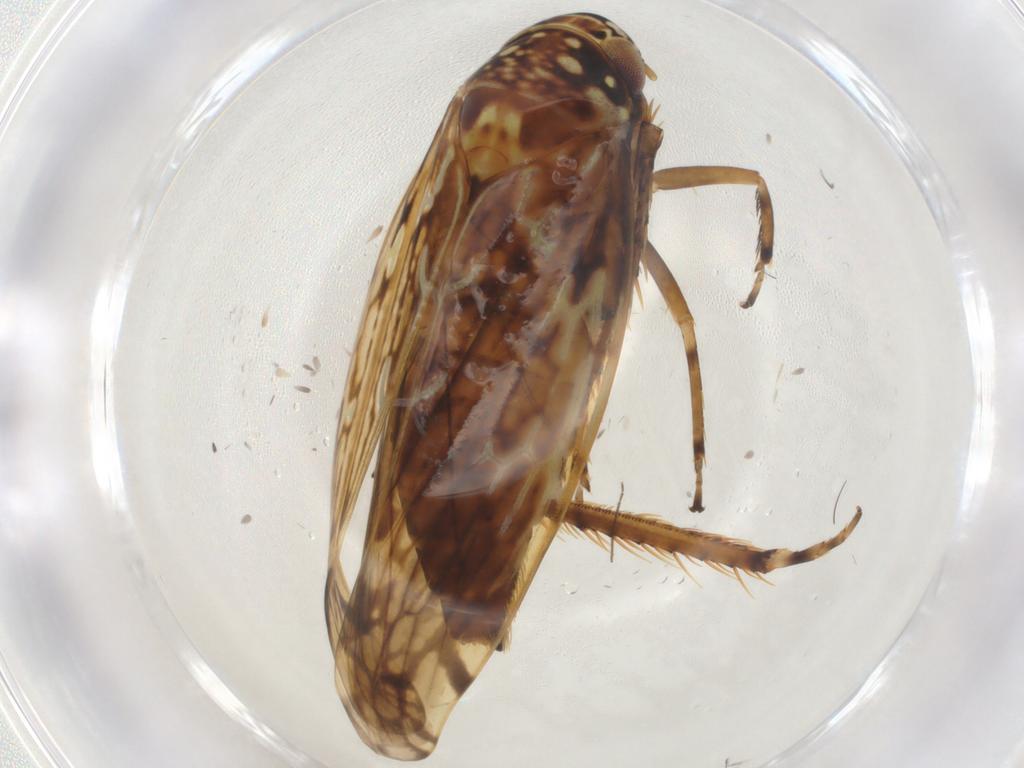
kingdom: Animalia
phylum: Arthropoda
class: Insecta
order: Hemiptera
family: Cicadellidae
